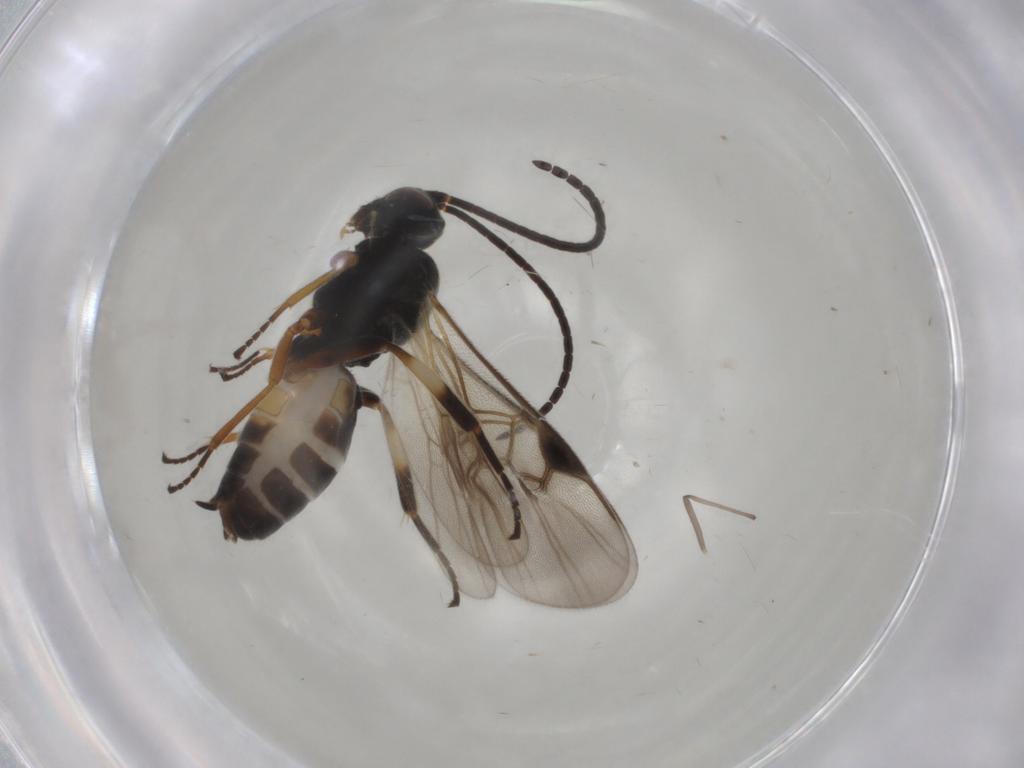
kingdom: Animalia
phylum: Arthropoda
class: Insecta
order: Hymenoptera
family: Braconidae
